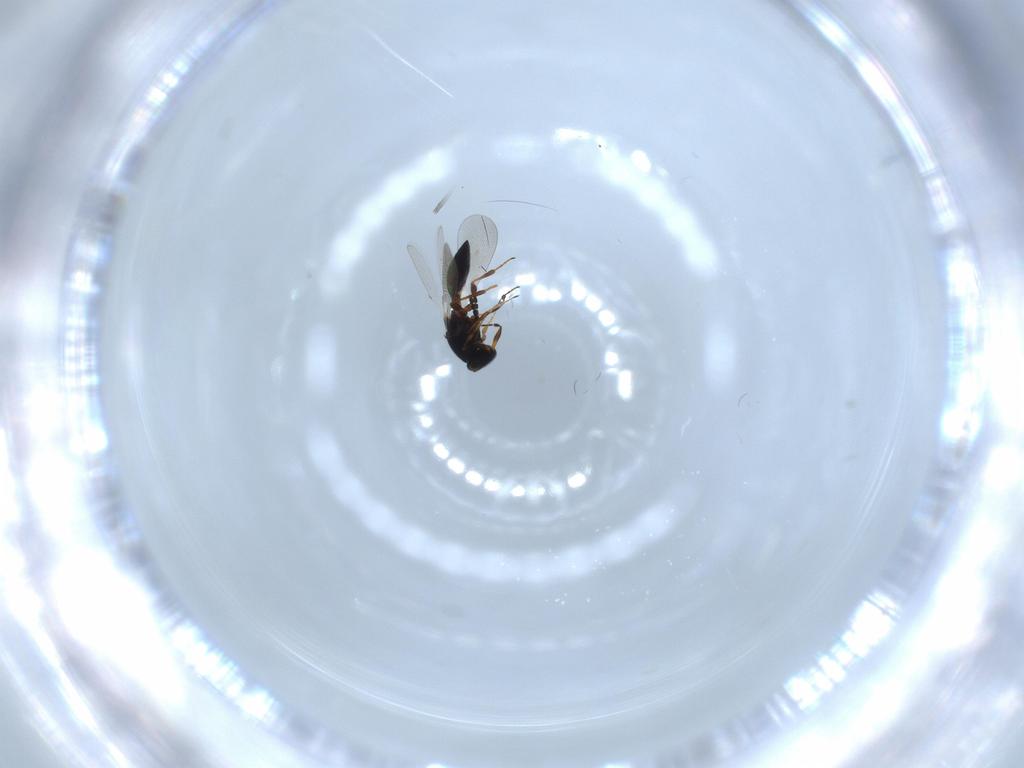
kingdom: Animalia
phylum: Arthropoda
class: Insecta
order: Hymenoptera
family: Platygastridae
